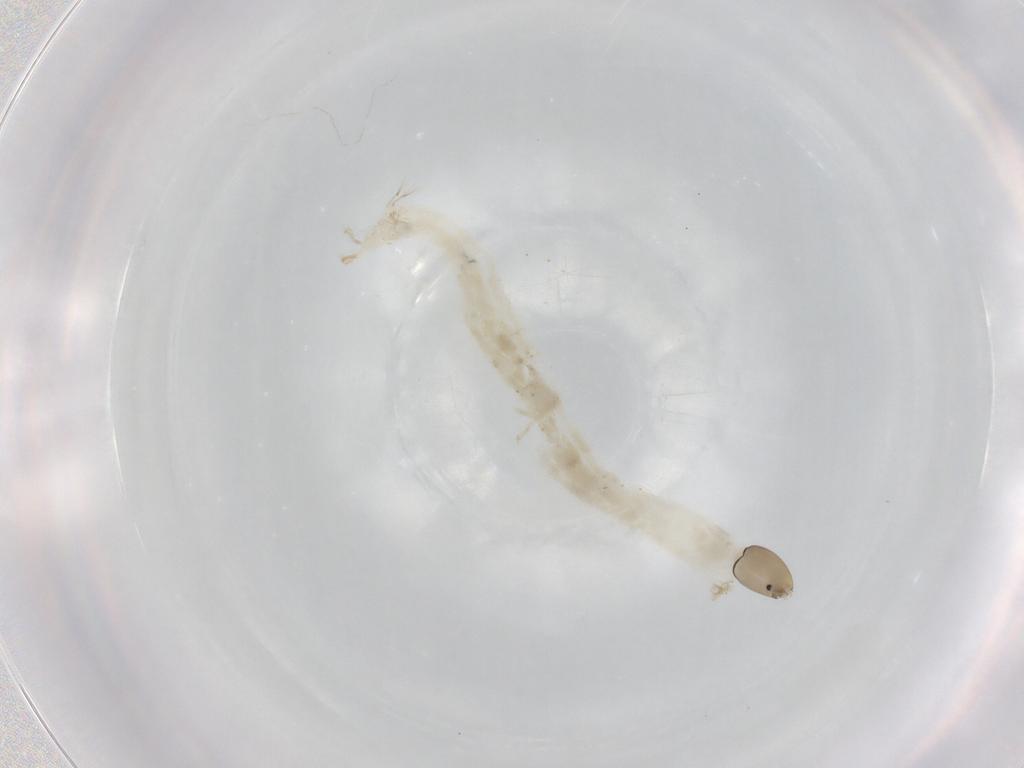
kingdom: Animalia
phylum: Arthropoda
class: Insecta
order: Diptera
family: Chironomidae
